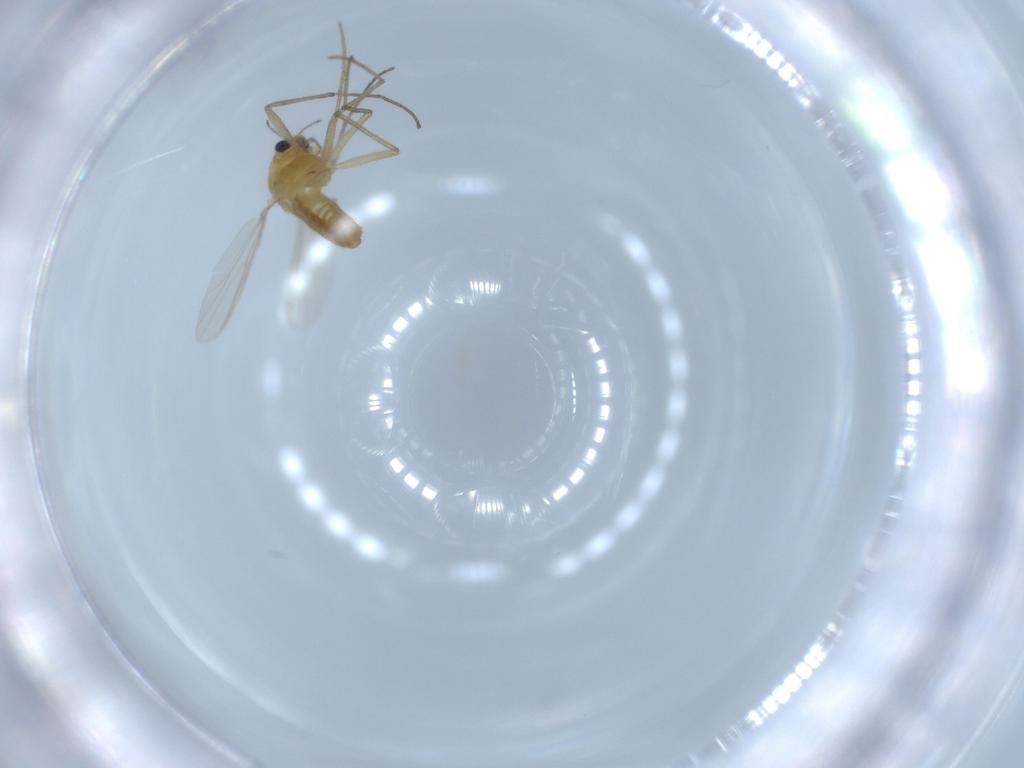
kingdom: Animalia
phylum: Arthropoda
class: Insecta
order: Diptera
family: Chironomidae
